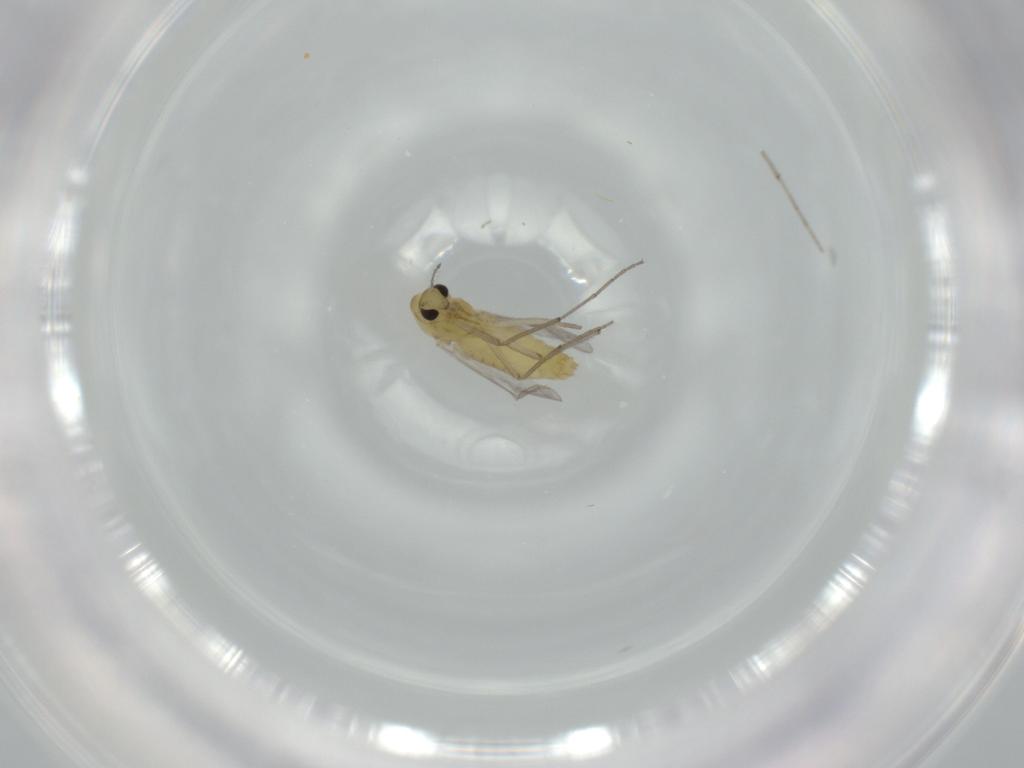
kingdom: Animalia
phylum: Arthropoda
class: Insecta
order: Diptera
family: Chironomidae
